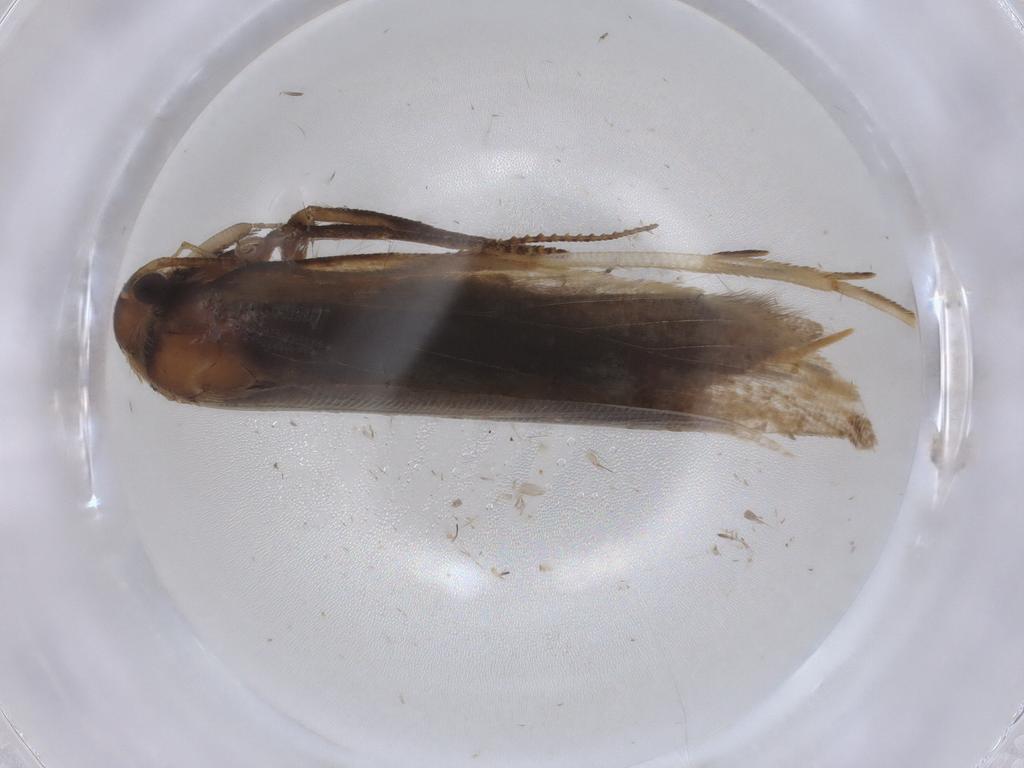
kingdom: Animalia
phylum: Arthropoda
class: Insecta
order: Lepidoptera
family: Gelechiidae
